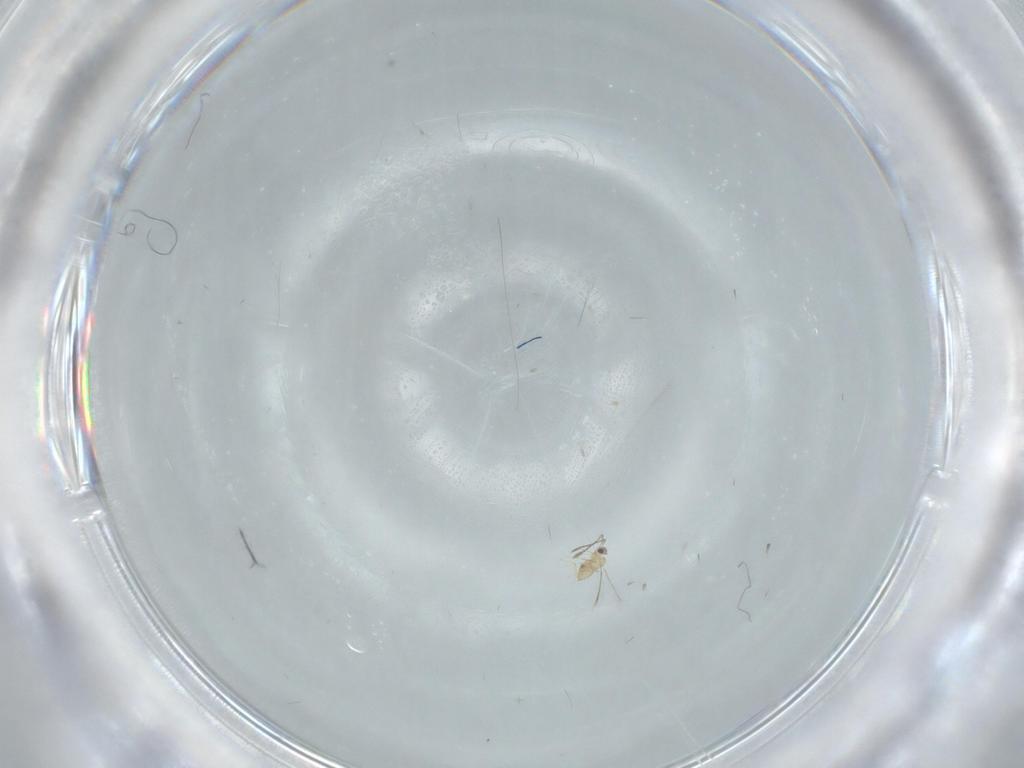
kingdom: Animalia
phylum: Arthropoda
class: Insecta
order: Hymenoptera
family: Mymaridae
